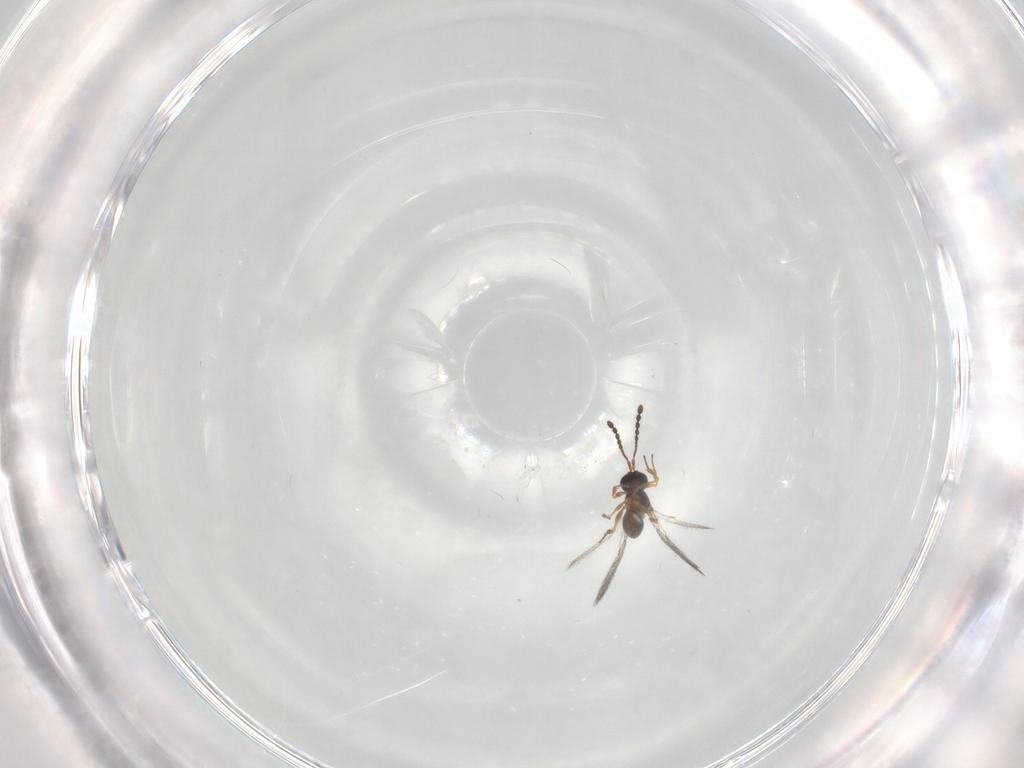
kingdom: Animalia
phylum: Arthropoda
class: Insecta
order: Hymenoptera
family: Figitidae
